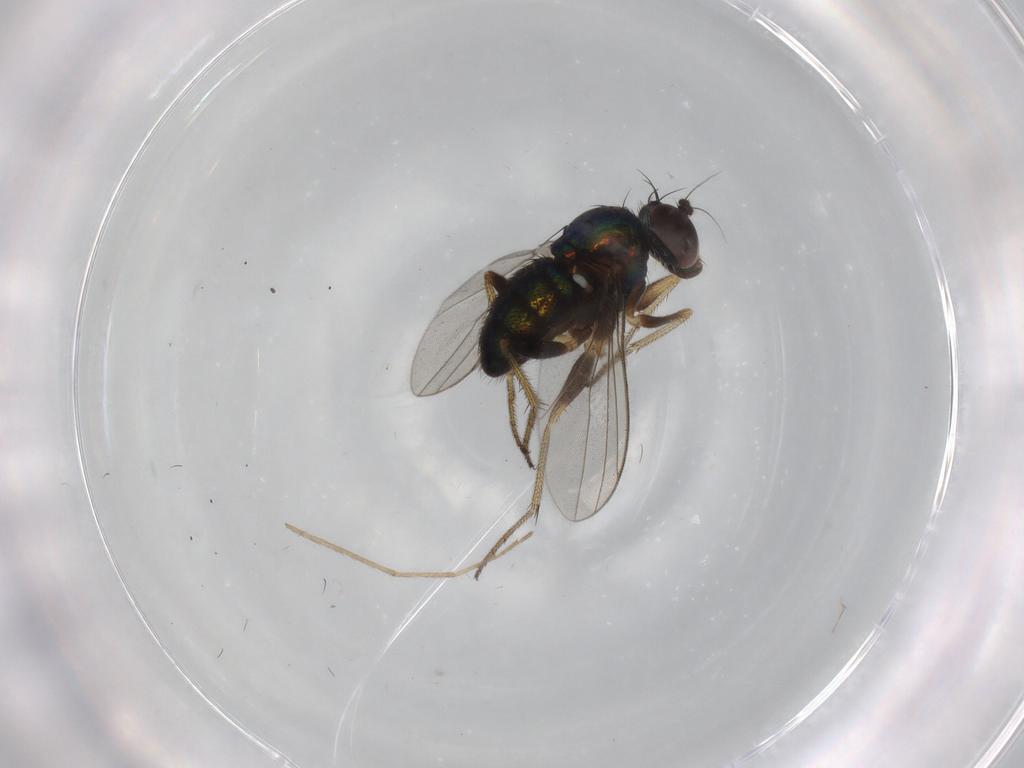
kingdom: Animalia
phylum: Arthropoda
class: Insecta
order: Diptera
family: Limoniidae
